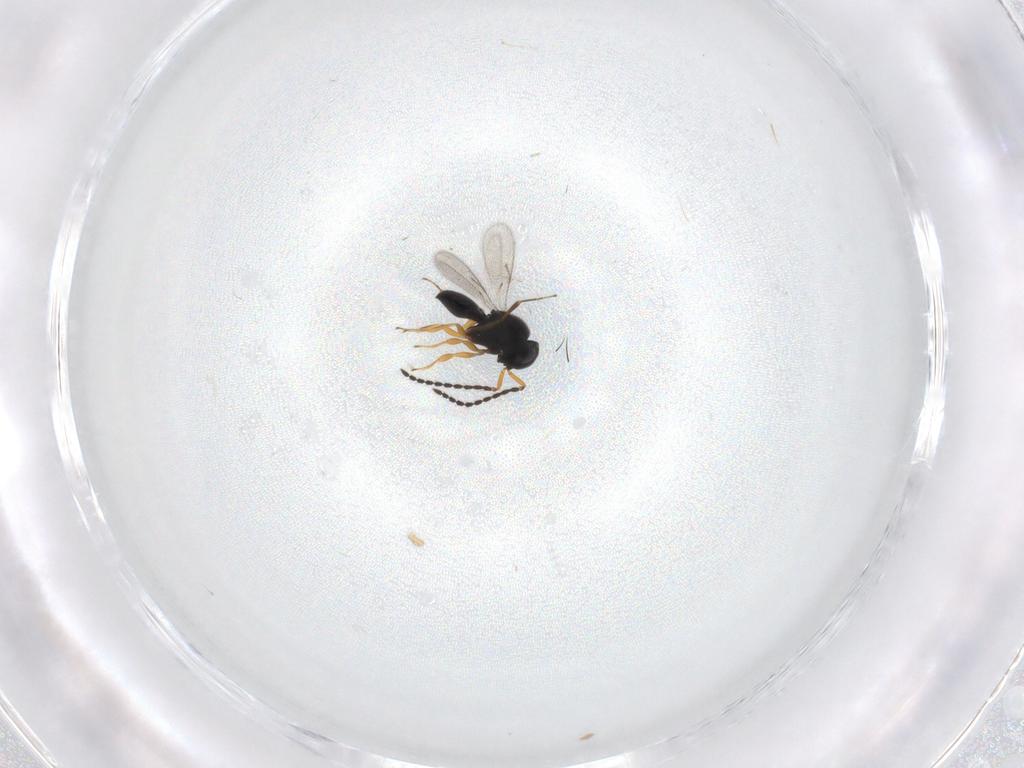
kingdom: Animalia
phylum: Arthropoda
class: Insecta
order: Hymenoptera
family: Scelionidae
